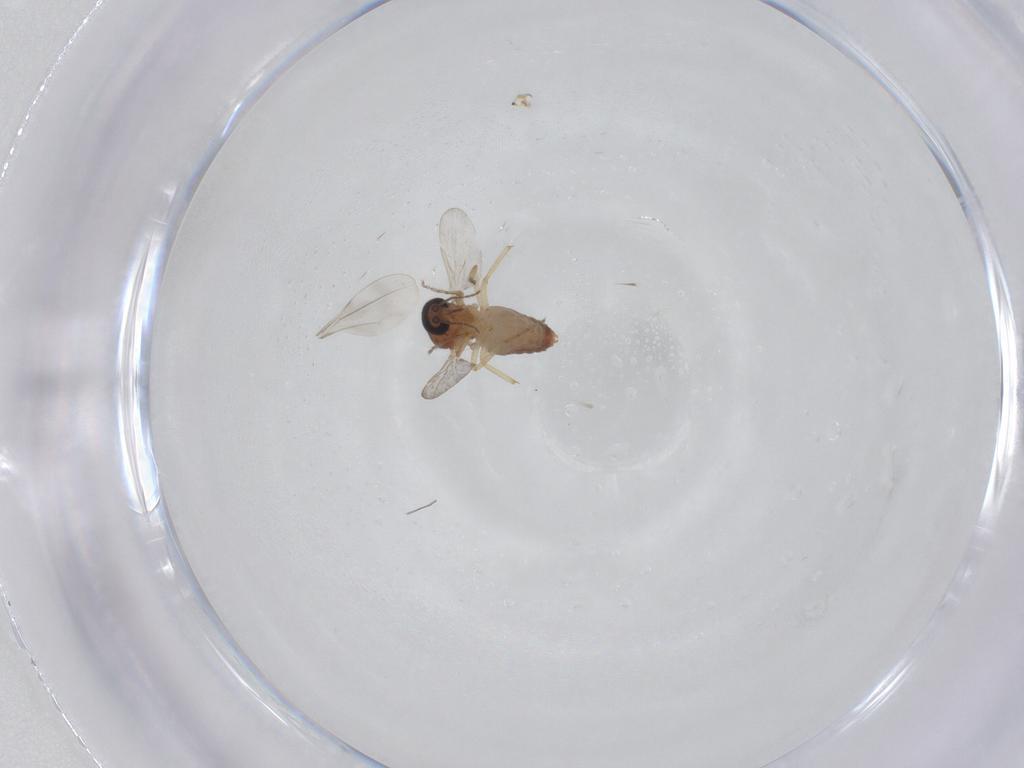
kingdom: Animalia
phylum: Arthropoda
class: Insecta
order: Diptera
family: Ceratopogonidae
